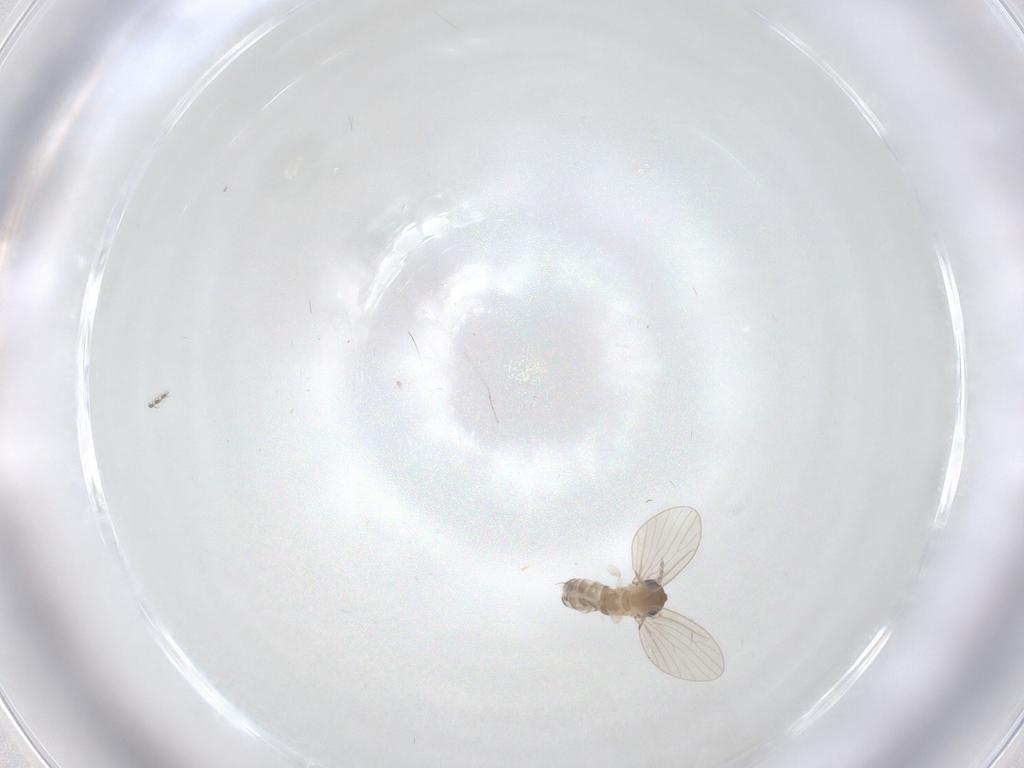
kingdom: Animalia
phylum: Arthropoda
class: Insecta
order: Diptera
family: Psychodidae
